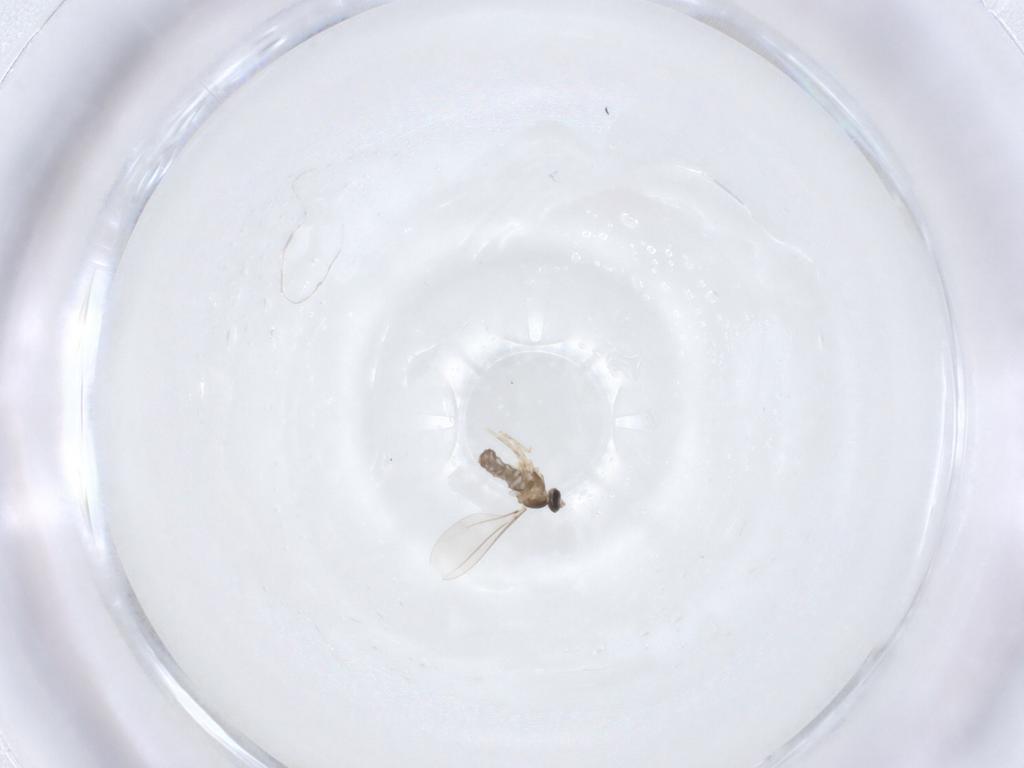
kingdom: Animalia
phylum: Arthropoda
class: Insecta
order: Diptera
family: Cecidomyiidae
